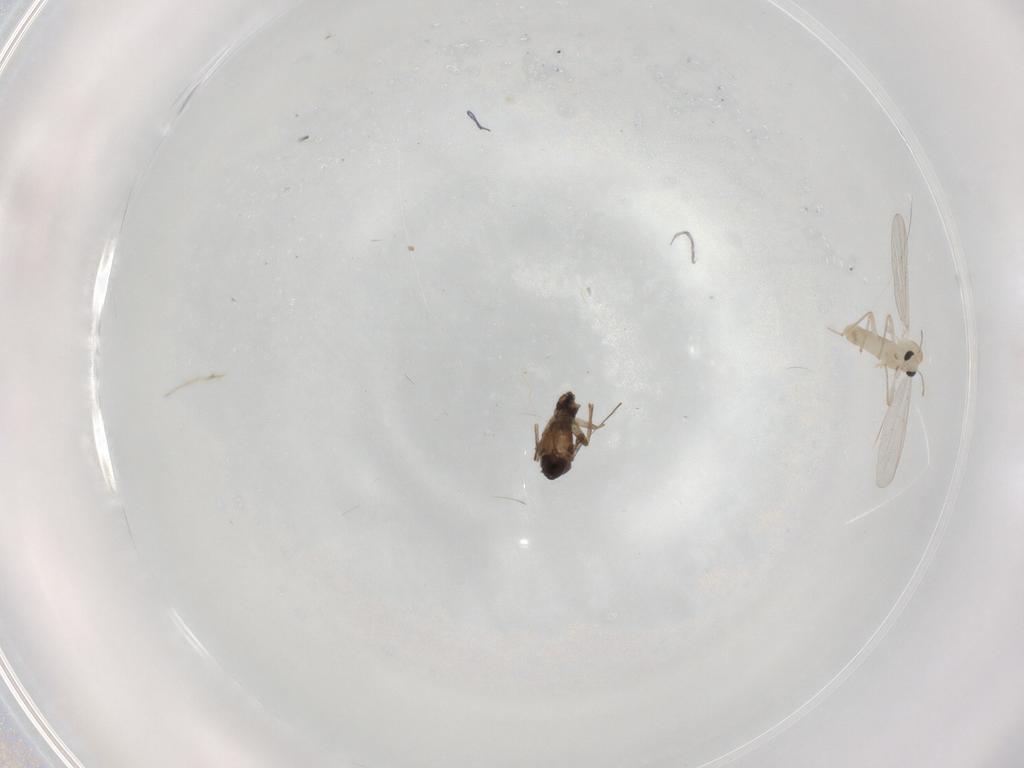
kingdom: Animalia
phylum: Arthropoda
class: Insecta
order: Diptera
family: Chironomidae
